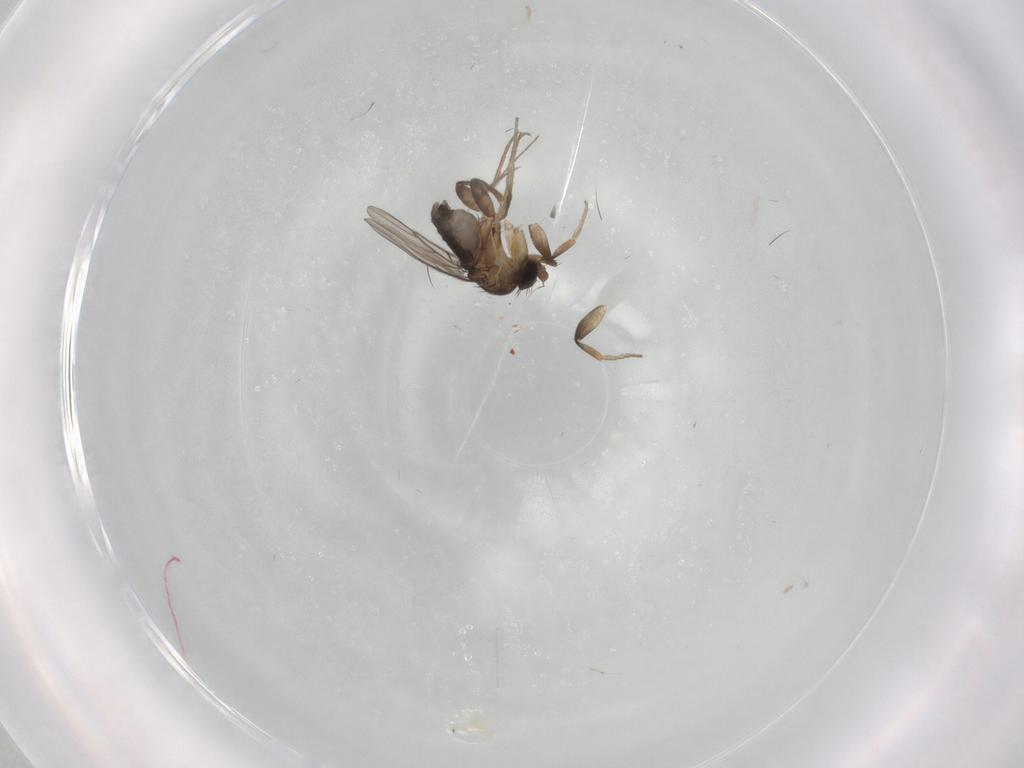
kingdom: Animalia
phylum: Arthropoda
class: Insecta
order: Diptera
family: Phoridae
